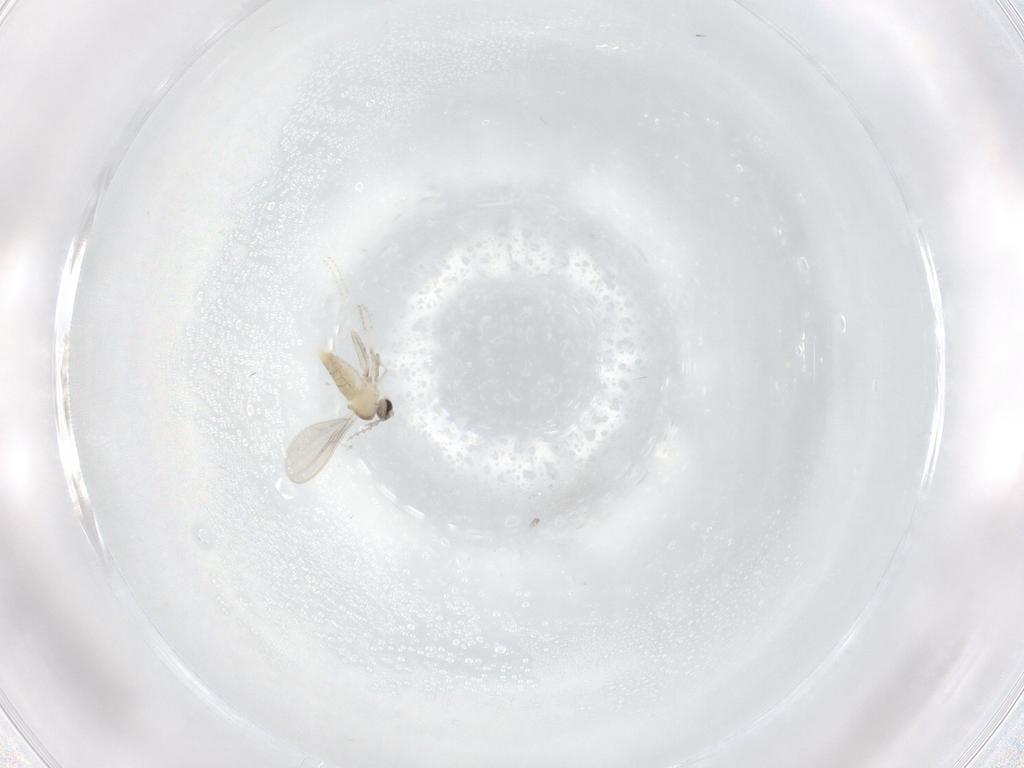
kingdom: Animalia
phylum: Arthropoda
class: Insecta
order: Diptera
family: Cecidomyiidae
